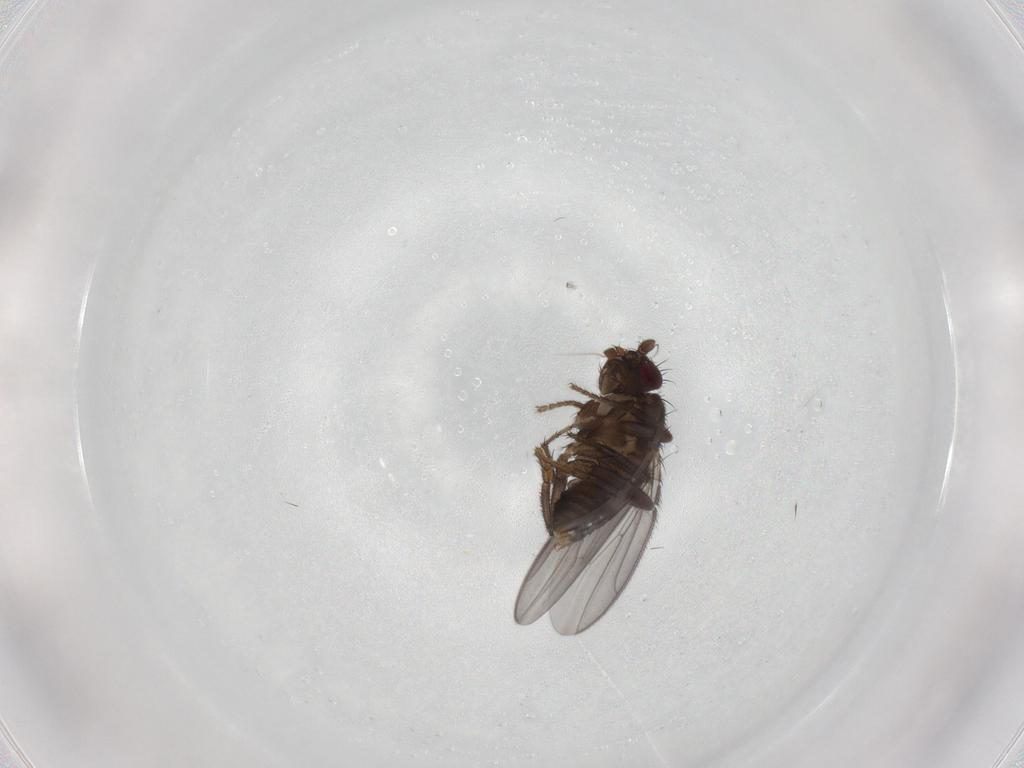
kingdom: Animalia
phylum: Arthropoda
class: Insecta
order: Diptera
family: Sphaeroceridae
